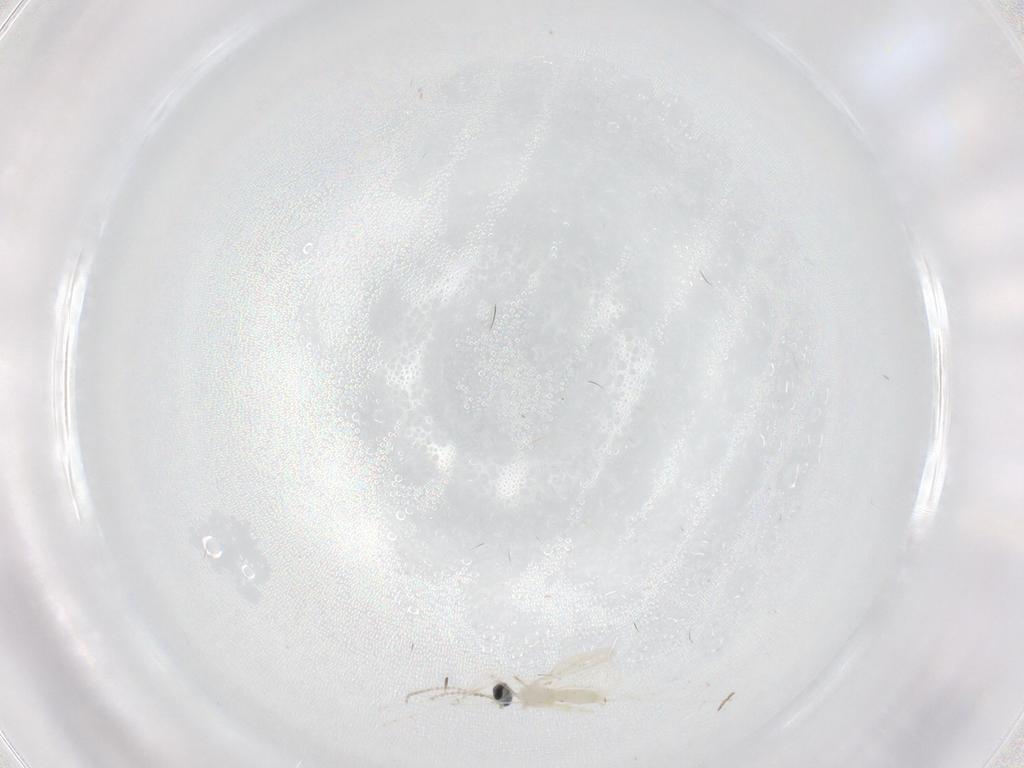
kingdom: Animalia
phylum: Arthropoda
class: Insecta
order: Diptera
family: Cecidomyiidae
